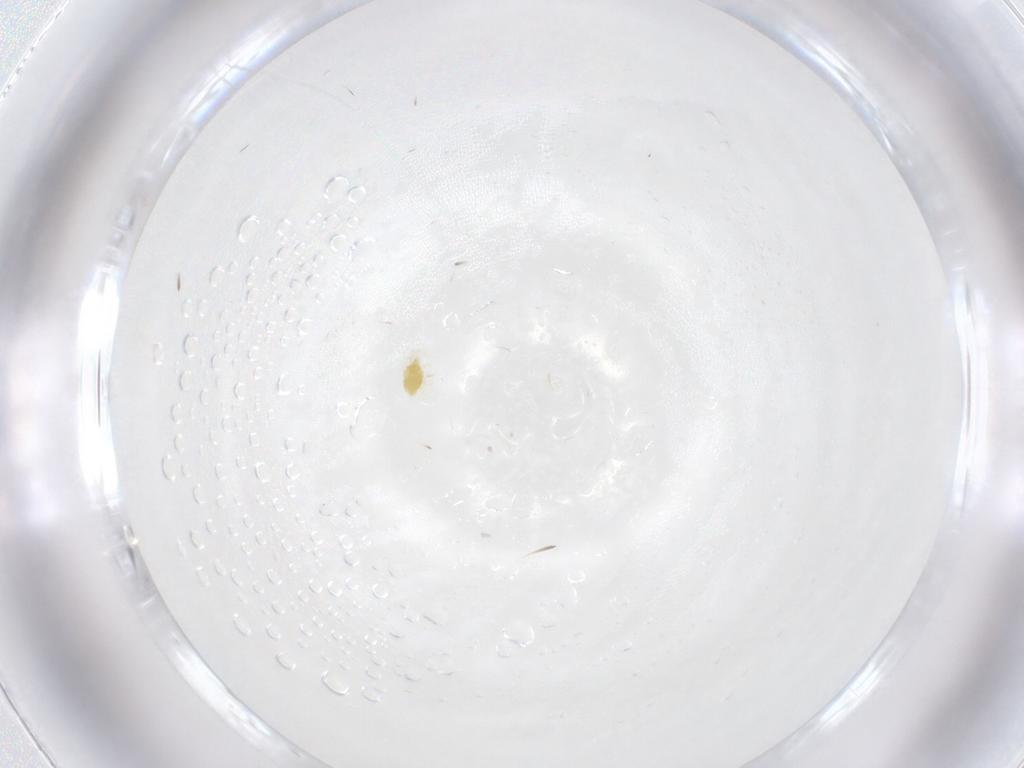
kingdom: Animalia
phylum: Arthropoda
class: Arachnida
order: Trombidiformes
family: Tetranychidae
